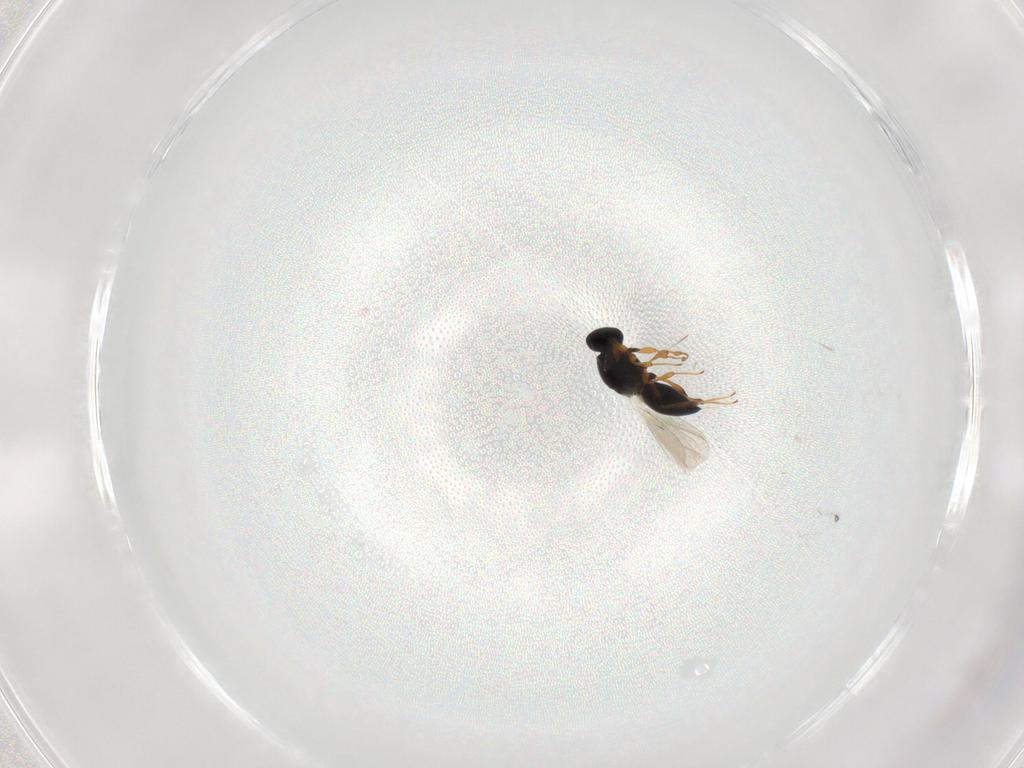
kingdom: Animalia
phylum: Arthropoda
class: Insecta
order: Hymenoptera
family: Platygastridae
